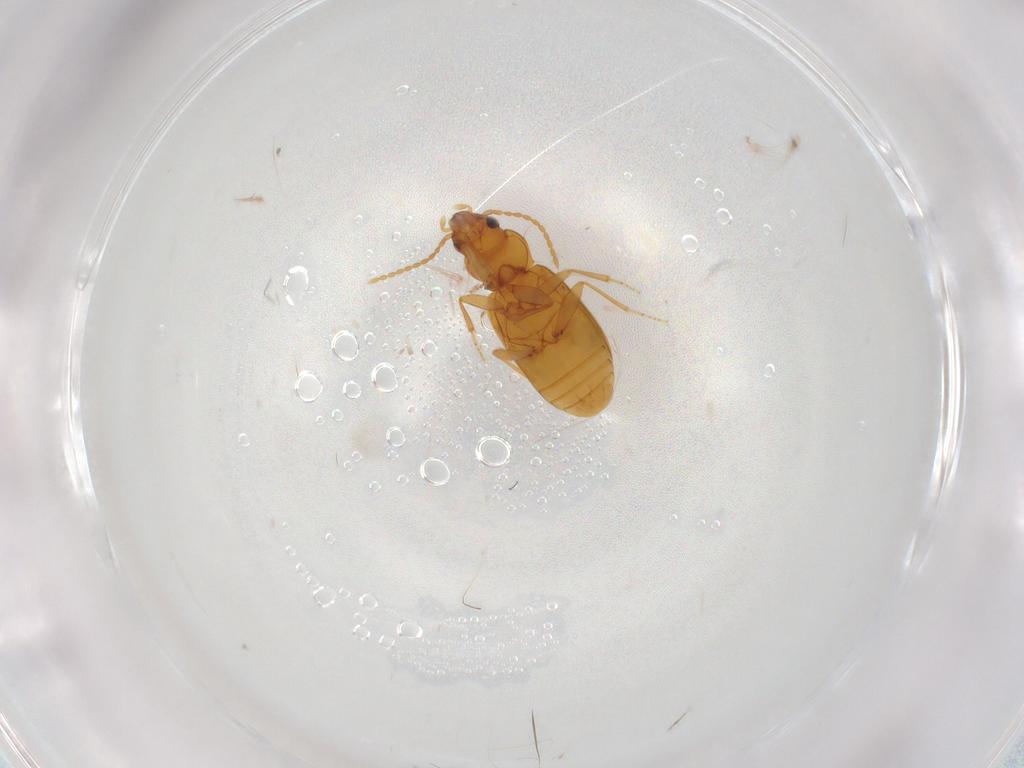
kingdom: Animalia
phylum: Arthropoda
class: Insecta
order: Coleoptera
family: Carabidae
